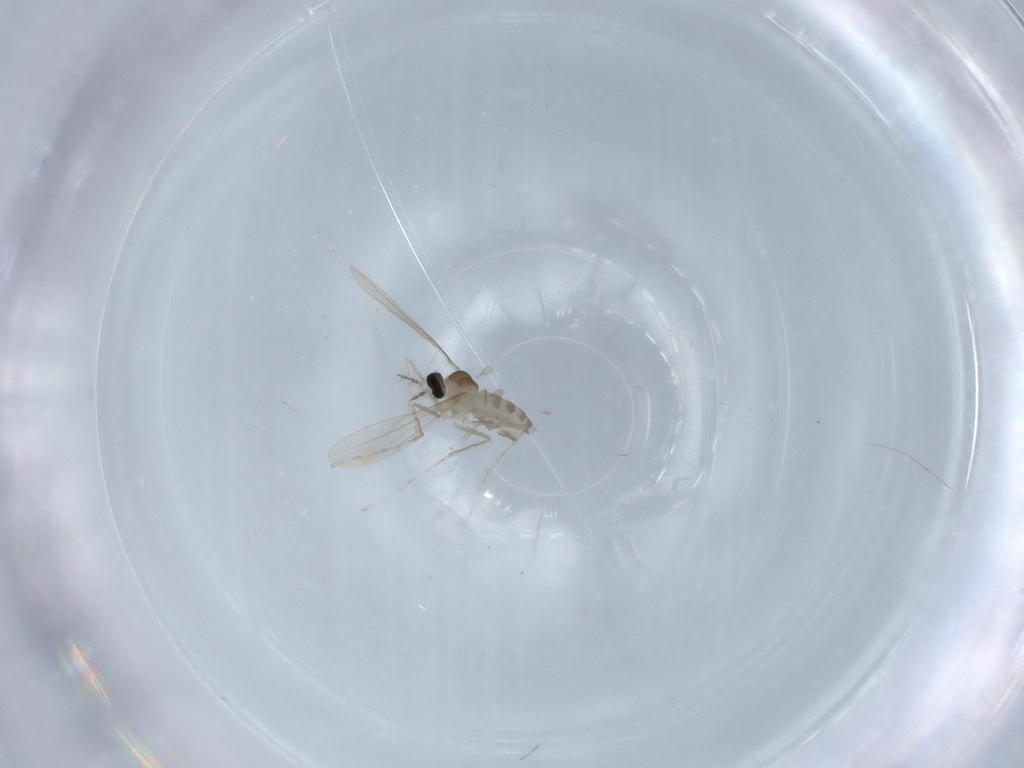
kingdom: Animalia
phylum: Arthropoda
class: Insecta
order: Diptera
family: Cecidomyiidae
